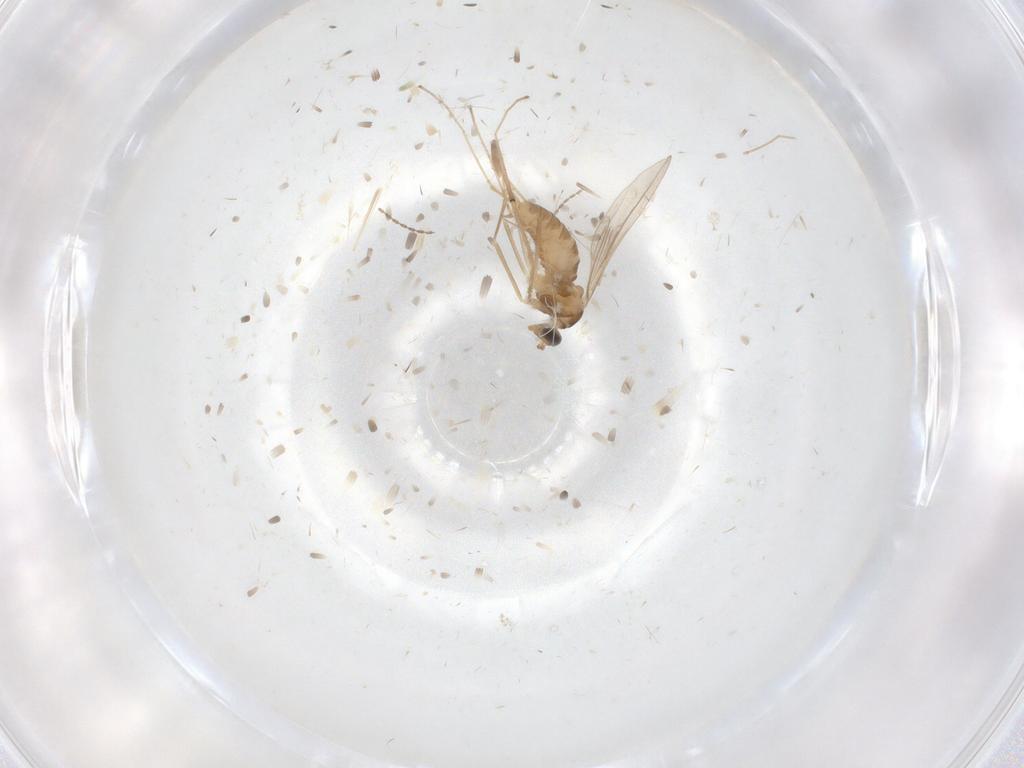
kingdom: Animalia
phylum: Arthropoda
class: Insecta
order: Diptera
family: Cecidomyiidae
